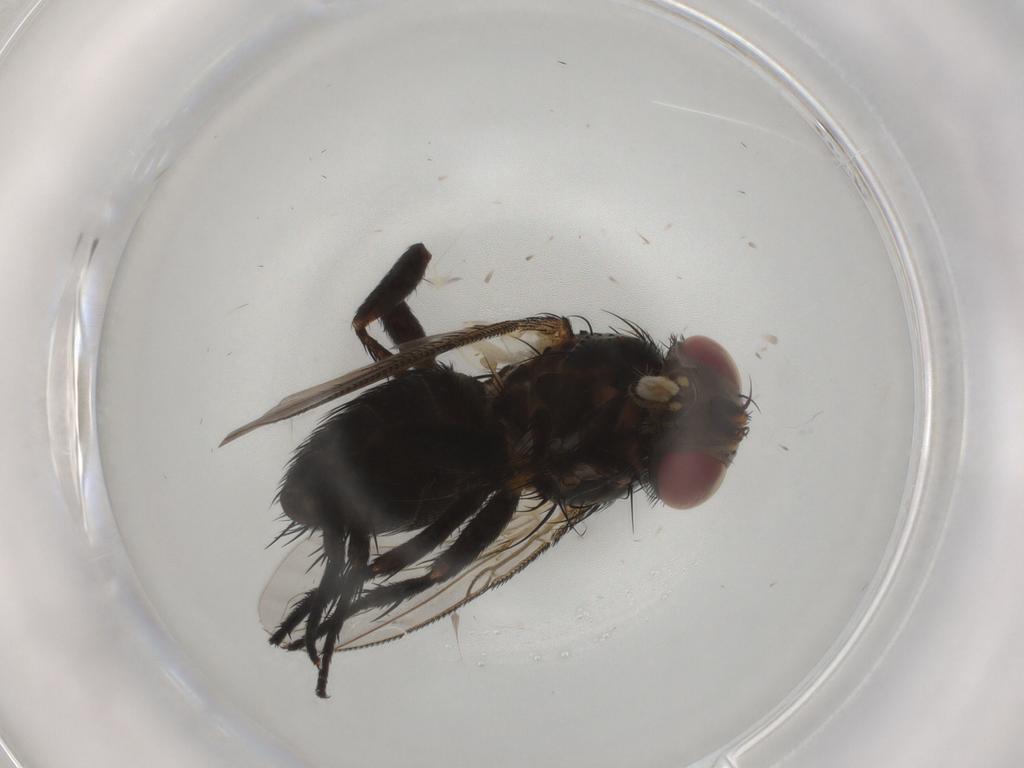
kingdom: Animalia
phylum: Arthropoda
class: Insecta
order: Diptera
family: Tachinidae
